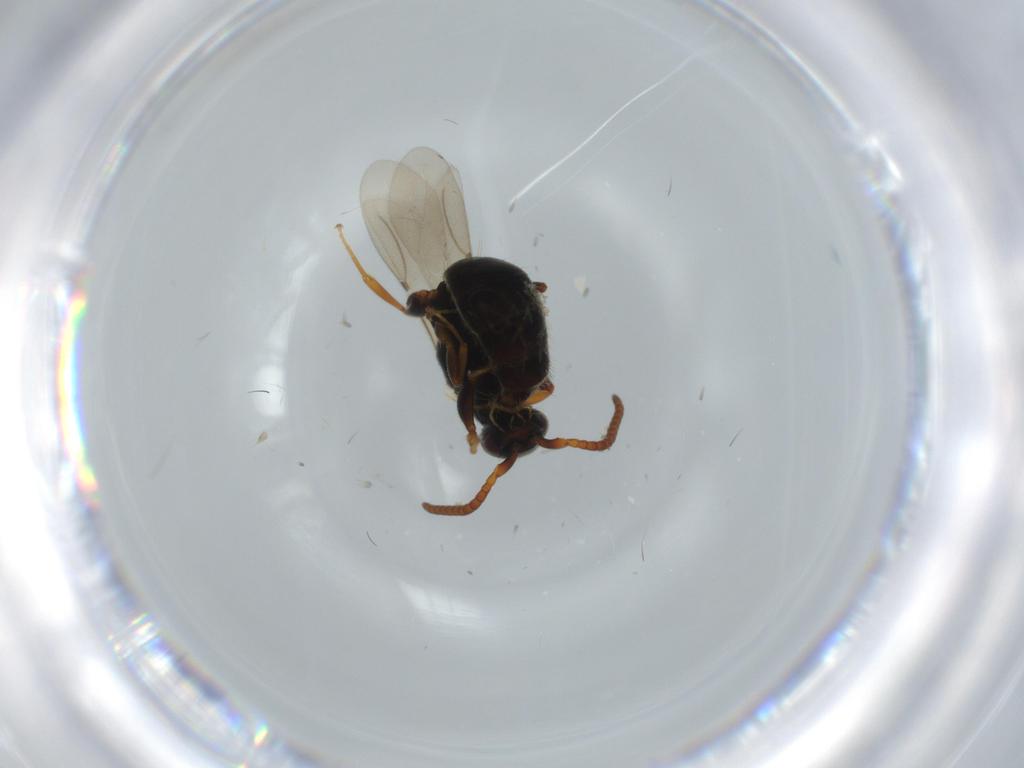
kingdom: Animalia
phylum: Arthropoda
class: Insecta
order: Hymenoptera
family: Bethylidae
